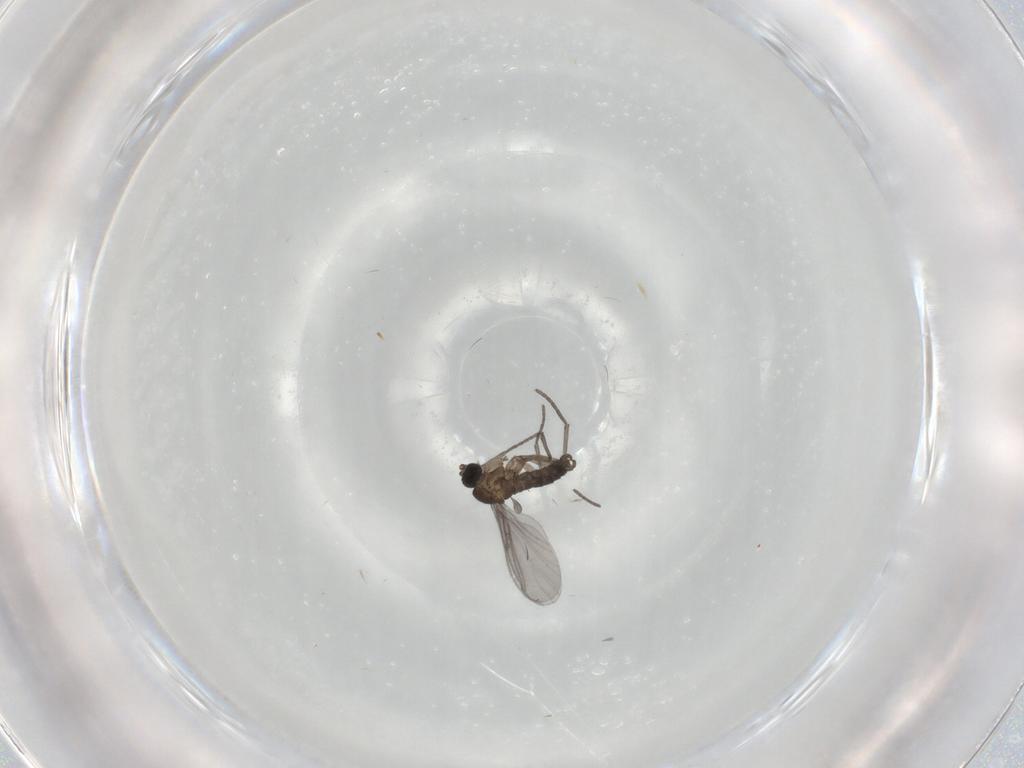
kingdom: Animalia
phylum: Arthropoda
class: Insecta
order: Diptera
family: Sciaridae
